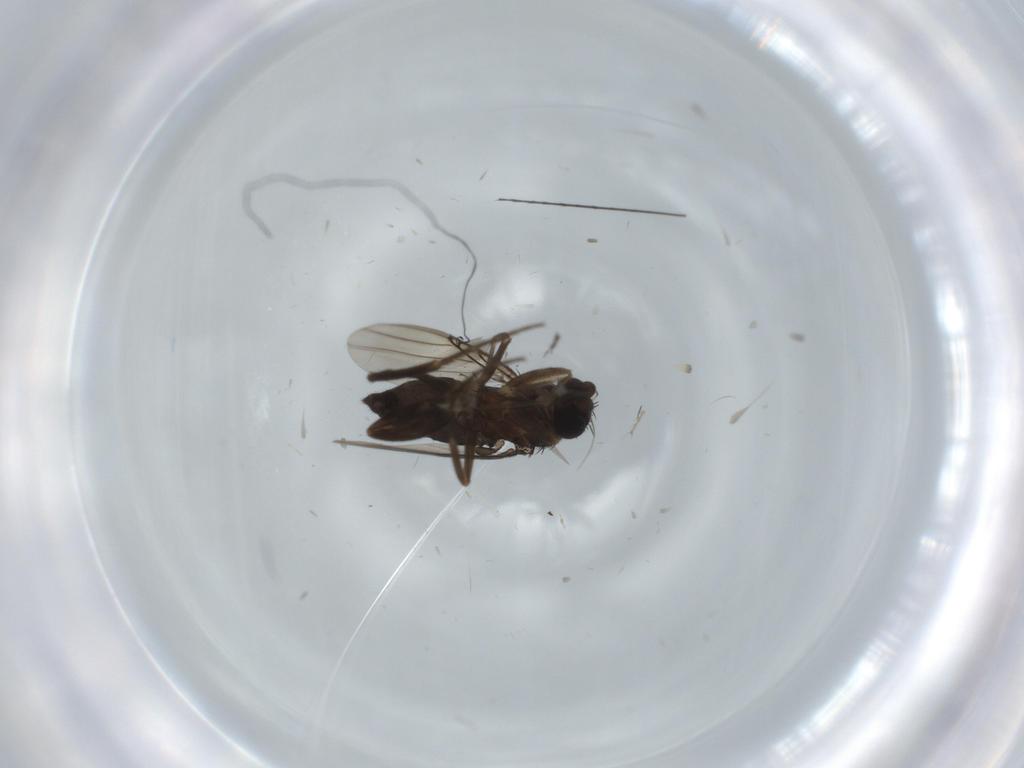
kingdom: Animalia
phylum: Arthropoda
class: Insecta
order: Diptera
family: Phoridae
